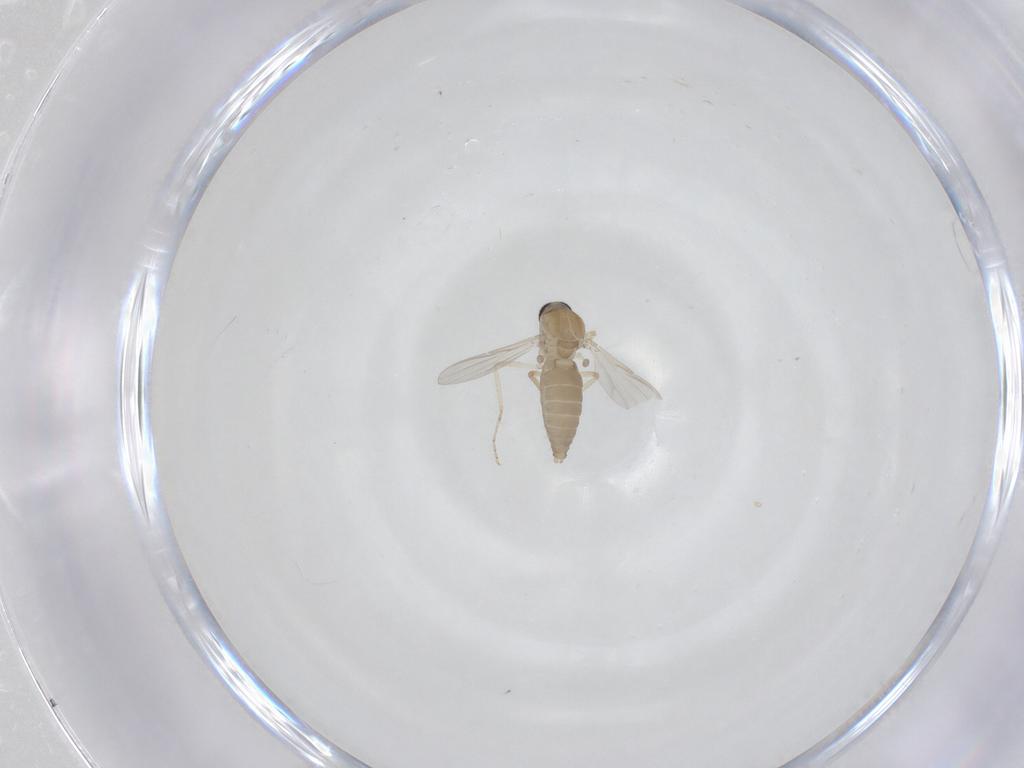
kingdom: Animalia
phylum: Arthropoda
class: Insecta
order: Diptera
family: Ceratopogonidae
